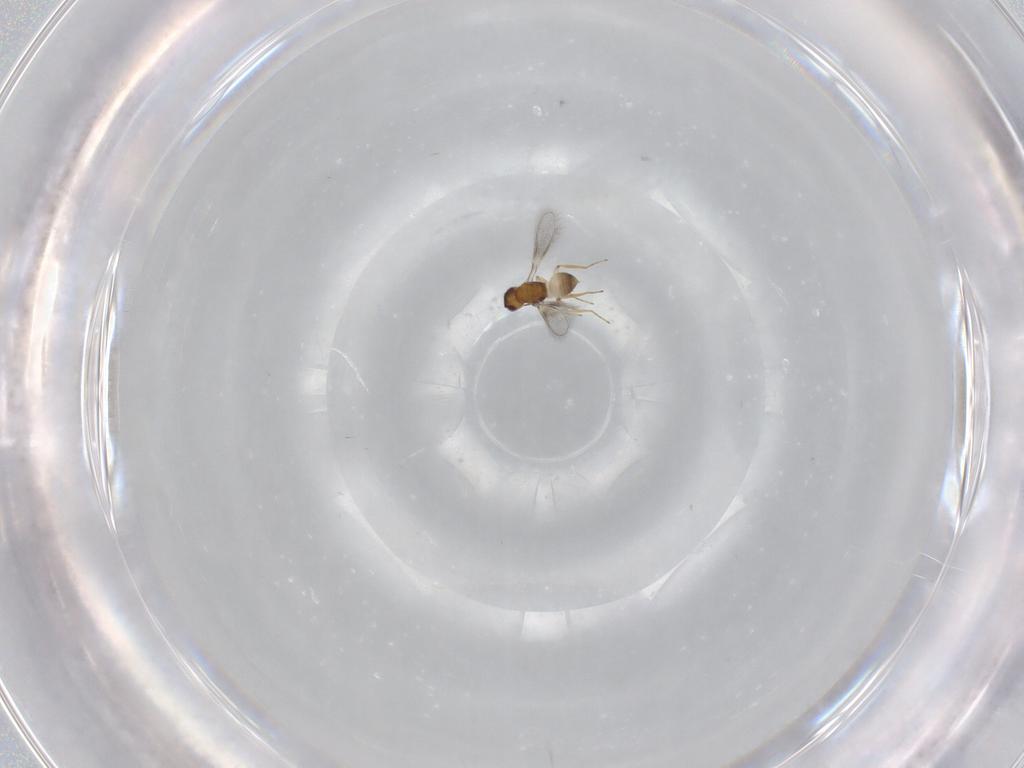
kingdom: Animalia
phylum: Arthropoda
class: Insecta
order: Hymenoptera
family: Mymaridae
